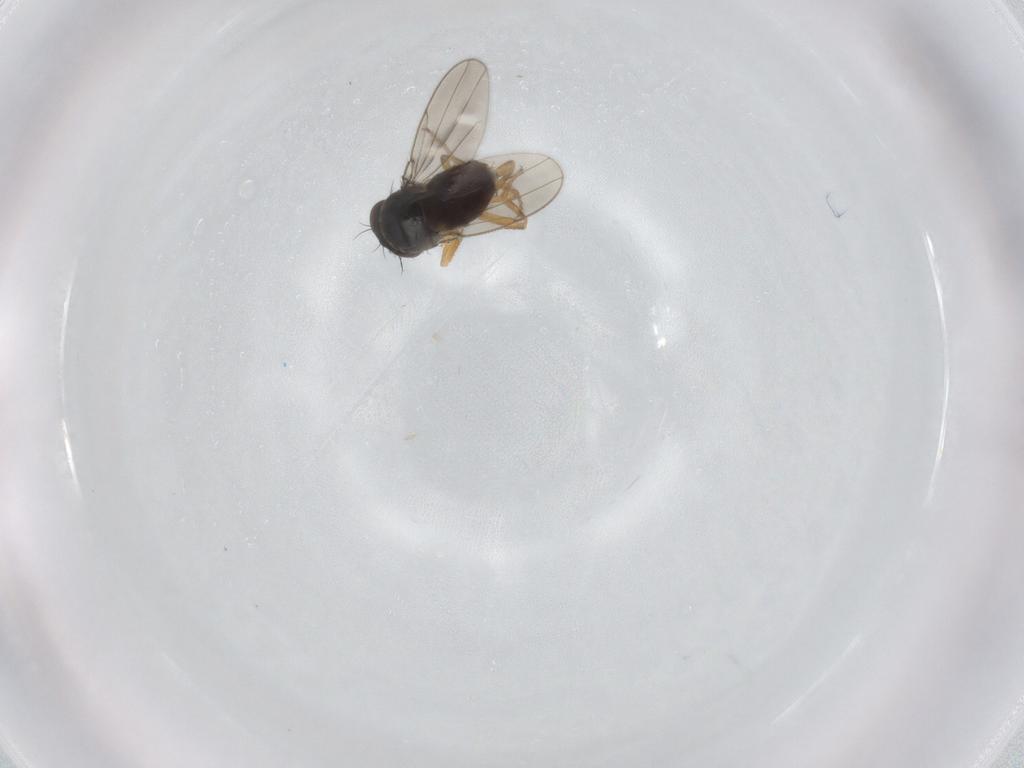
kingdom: Animalia
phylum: Arthropoda
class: Insecta
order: Diptera
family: Ephydridae
